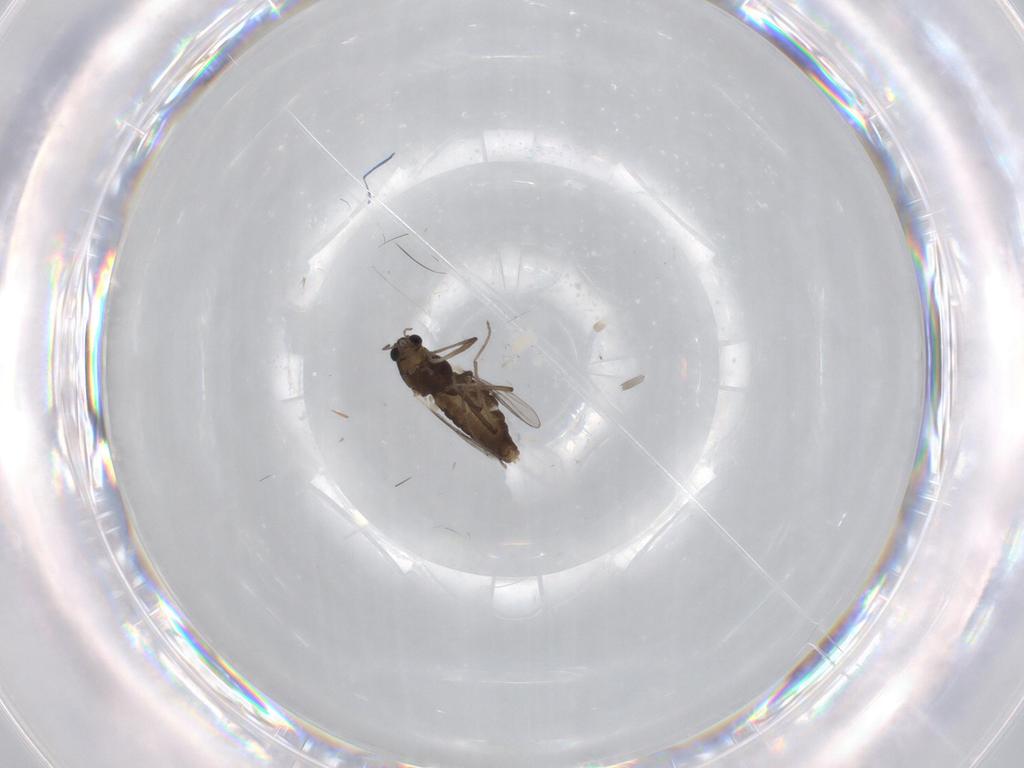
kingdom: Animalia
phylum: Arthropoda
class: Insecta
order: Diptera
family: Chironomidae
